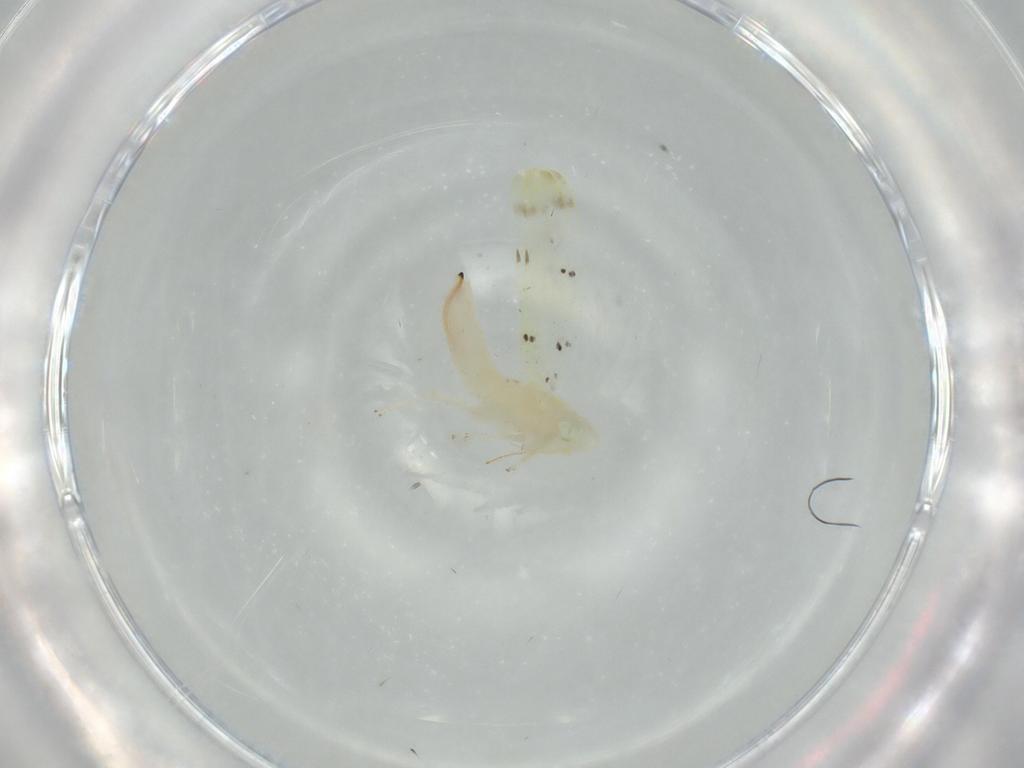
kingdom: Animalia
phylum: Arthropoda
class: Insecta
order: Hemiptera
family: Cicadellidae
